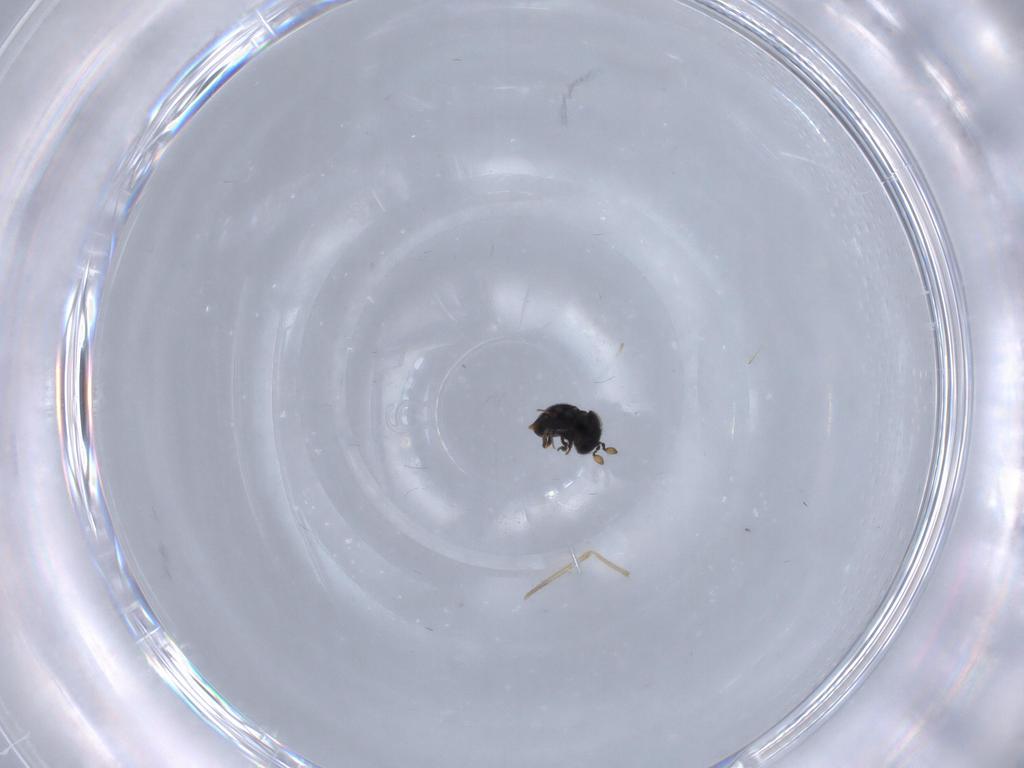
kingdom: Animalia
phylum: Arthropoda
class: Insecta
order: Hymenoptera
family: Scelionidae
